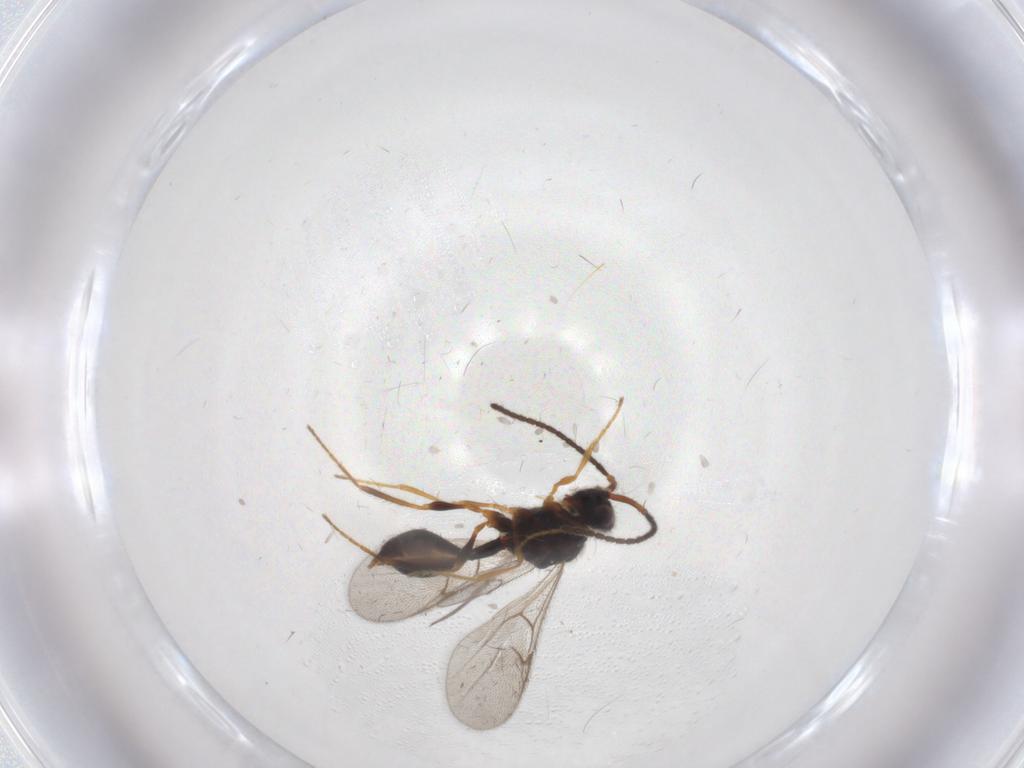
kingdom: Animalia
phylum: Arthropoda
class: Insecta
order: Hymenoptera
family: Diapriidae
